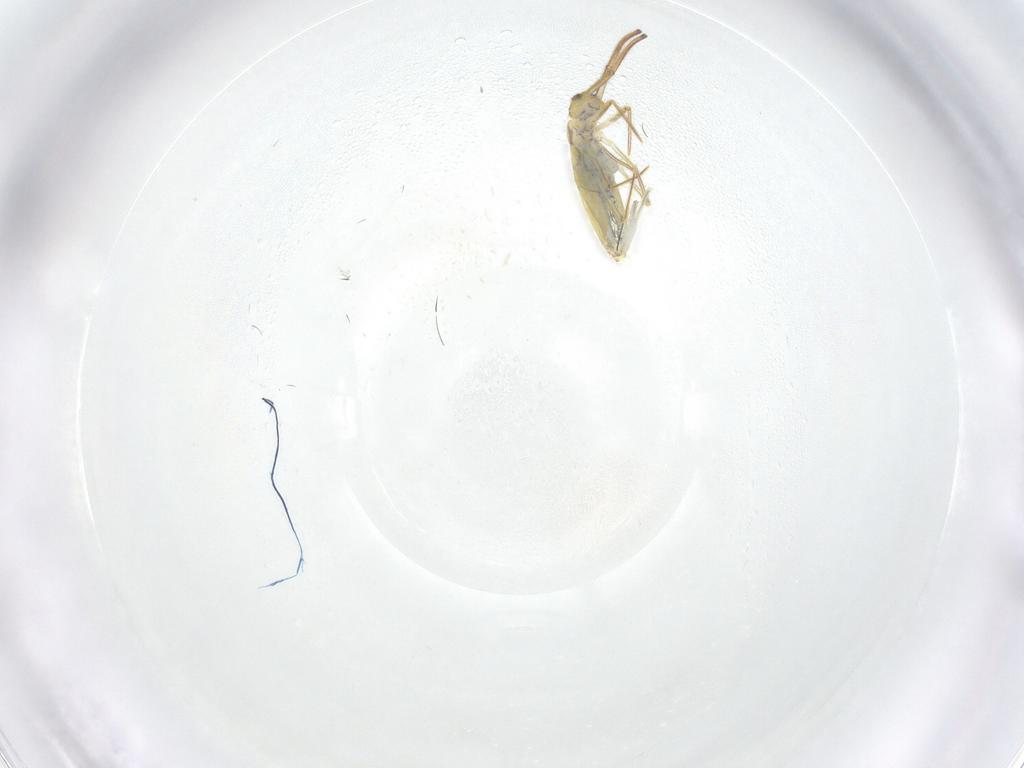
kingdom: Animalia
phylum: Arthropoda
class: Collembola
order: Entomobryomorpha
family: Entomobryidae
